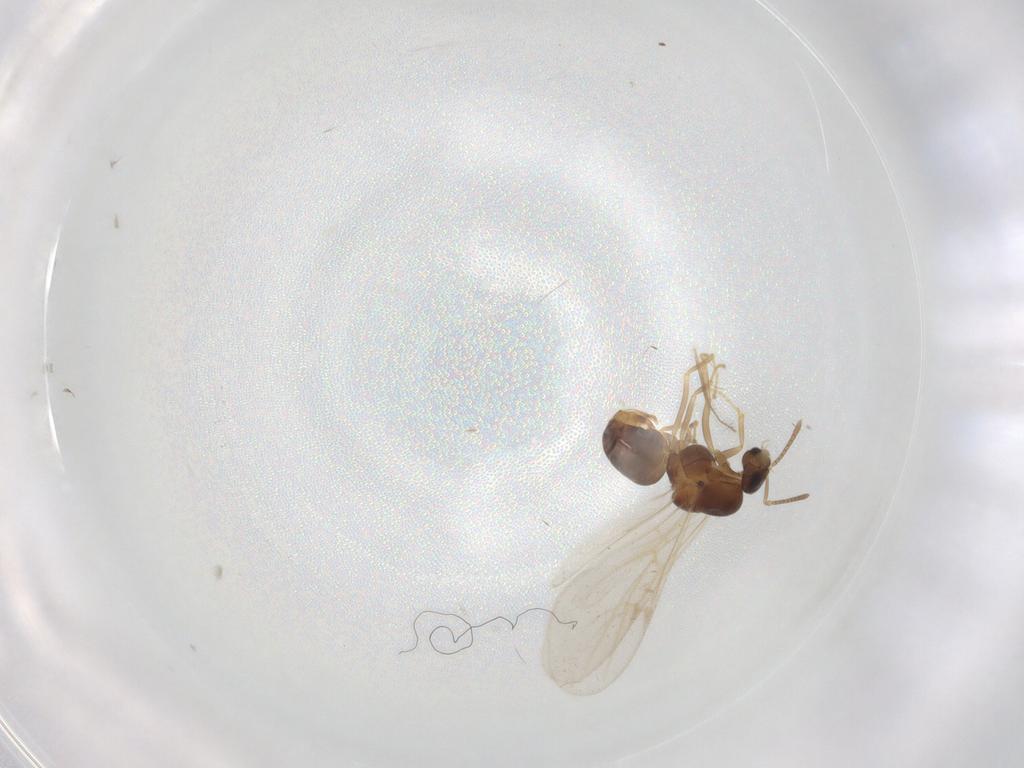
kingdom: Animalia
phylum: Arthropoda
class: Insecta
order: Hymenoptera
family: Formicidae
